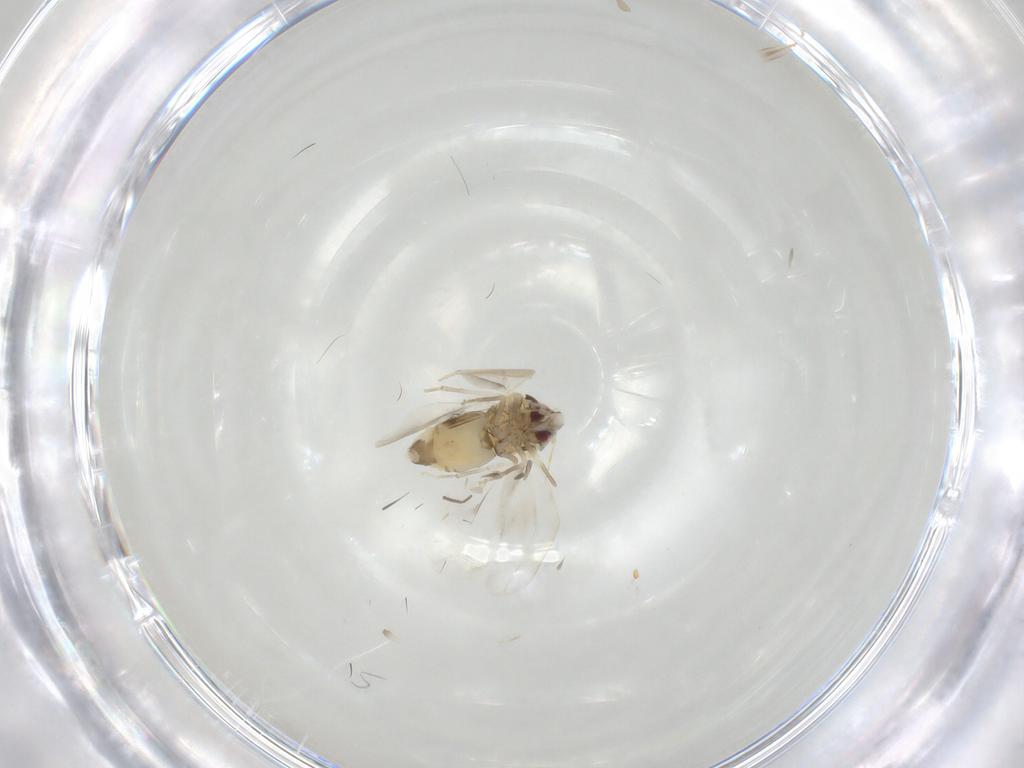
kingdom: Animalia
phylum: Arthropoda
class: Insecta
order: Hemiptera
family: Aleyrodidae
